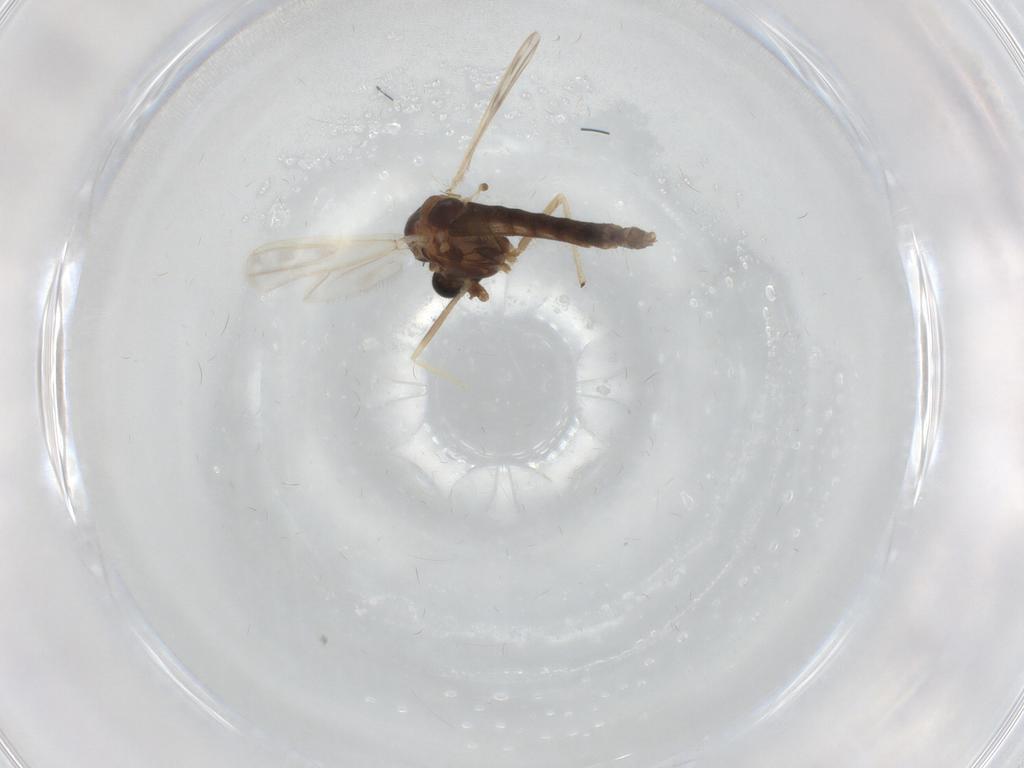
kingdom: Animalia
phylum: Arthropoda
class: Insecta
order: Diptera
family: Chironomidae
